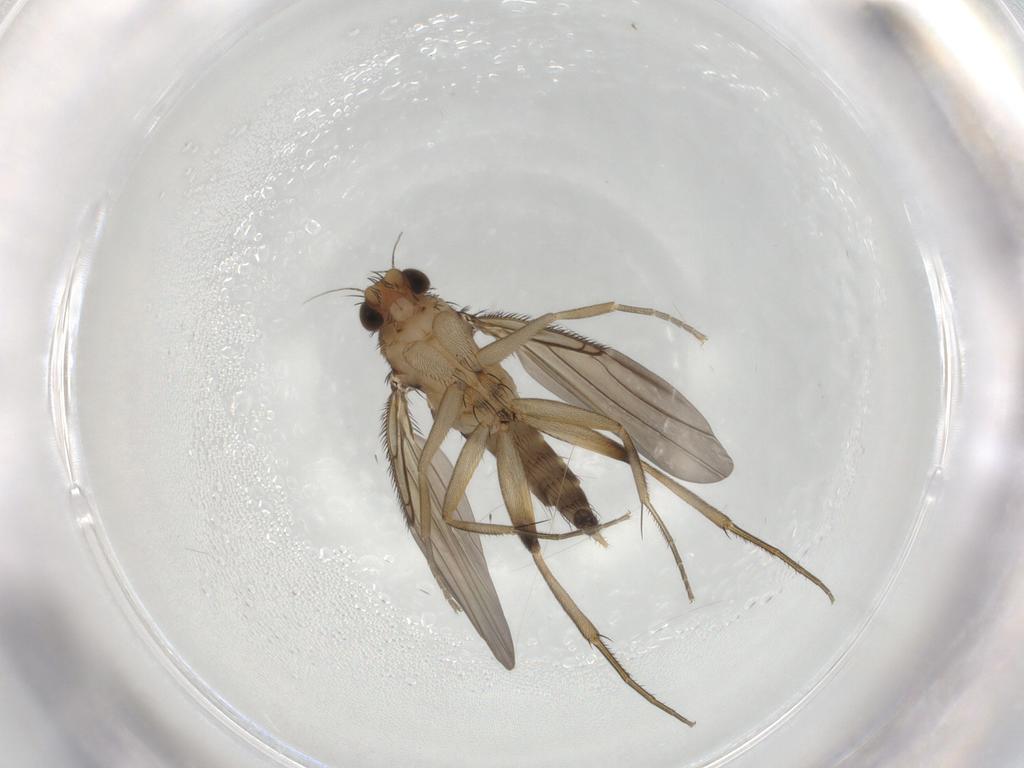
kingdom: Animalia
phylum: Arthropoda
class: Insecta
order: Diptera
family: Phoridae
